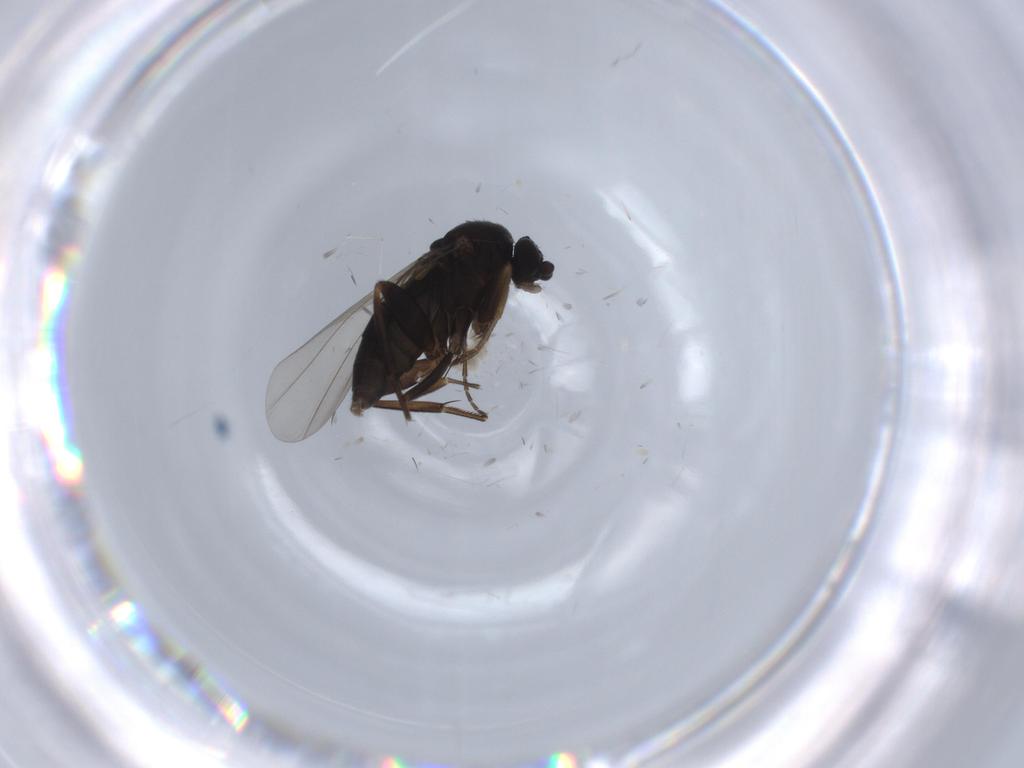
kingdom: Animalia
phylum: Arthropoda
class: Insecta
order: Diptera
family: Phoridae
